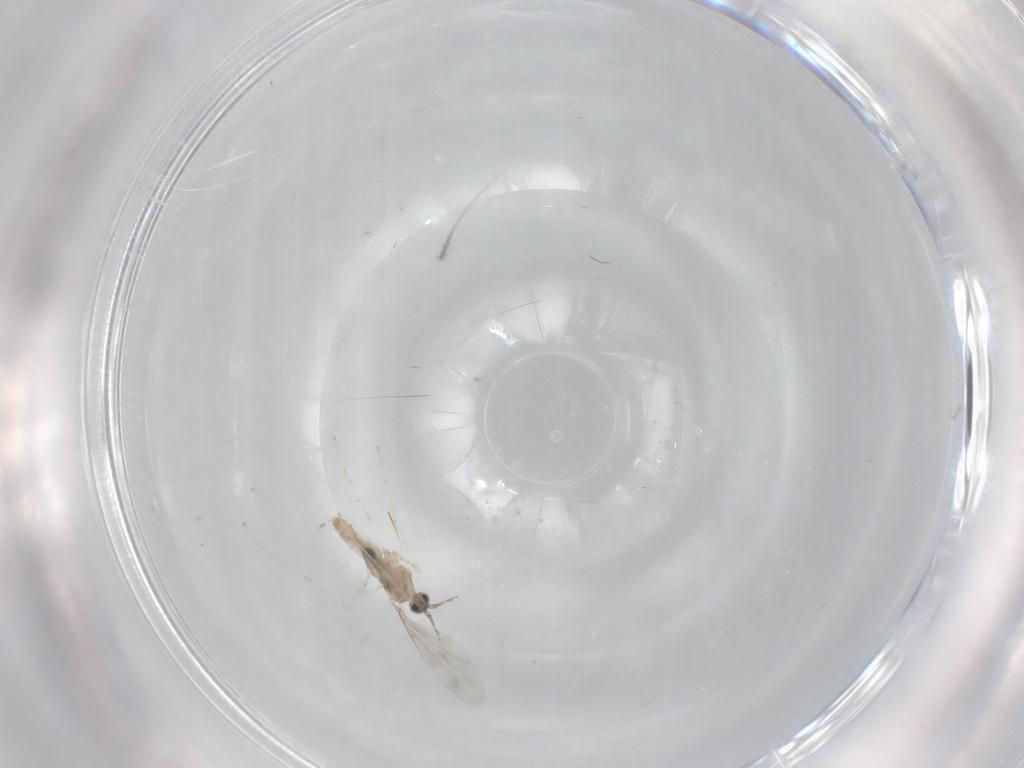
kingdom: Animalia
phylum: Arthropoda
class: Insecta
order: Diptera
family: Cecidomyiidae
